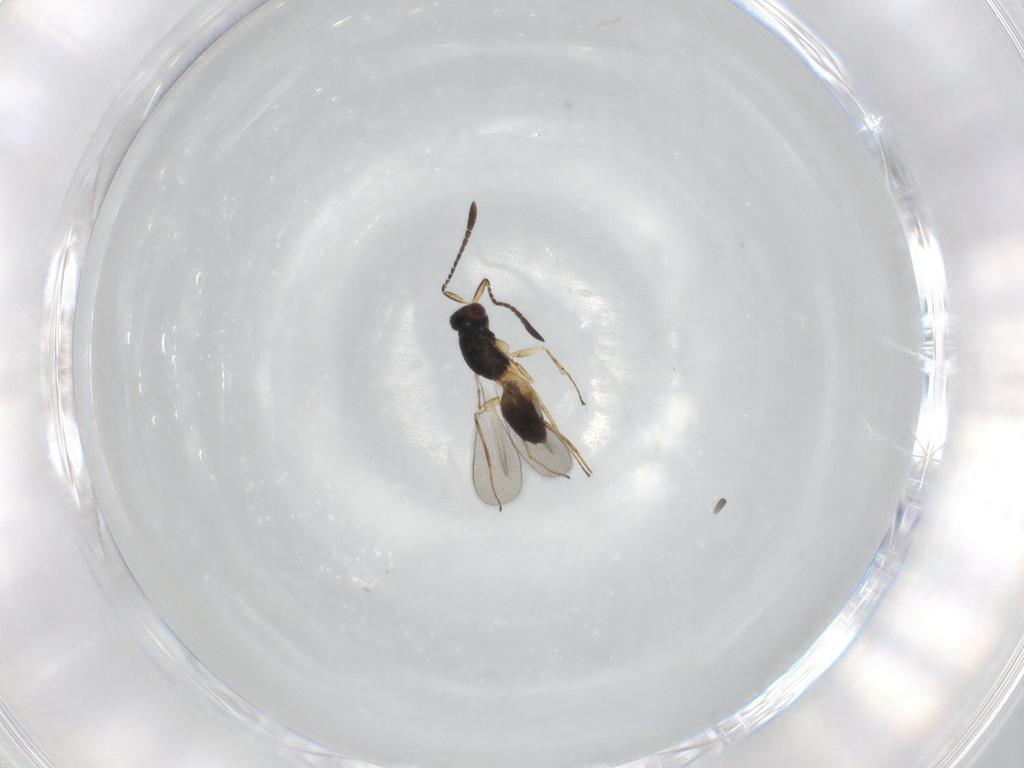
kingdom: Animalia
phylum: Arthropoda
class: Insecta
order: Hymenoptera
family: Mymaridae
